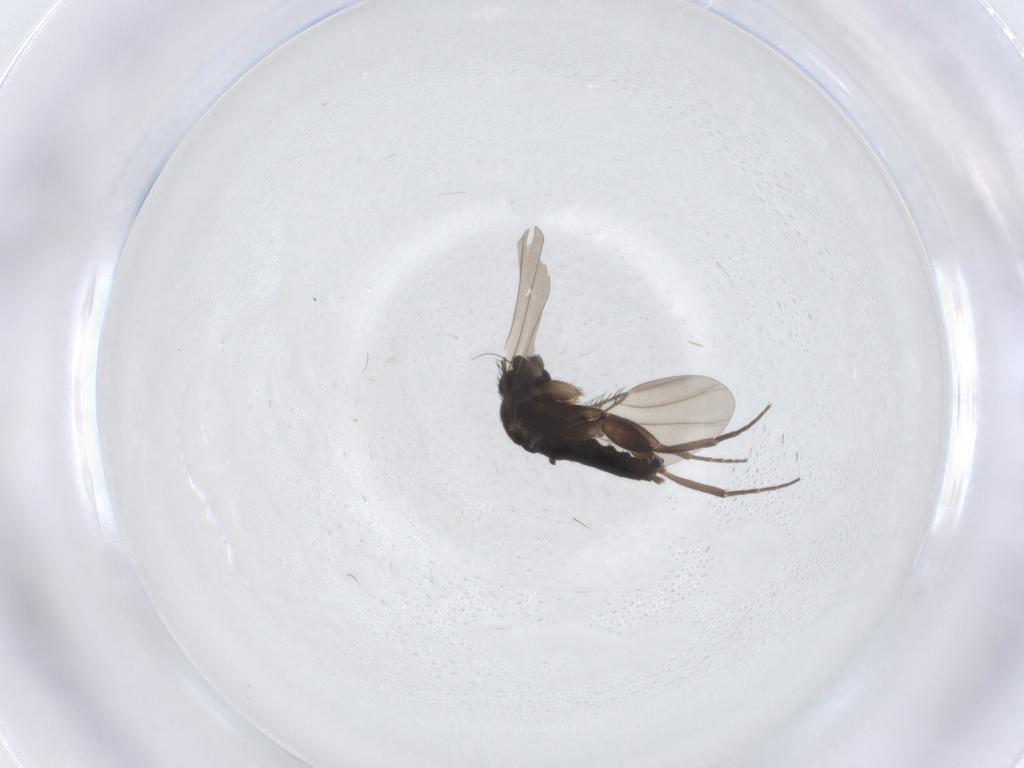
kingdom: Animalia
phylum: Arthropoda
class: Insecta
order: Diptera
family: Phoridae
